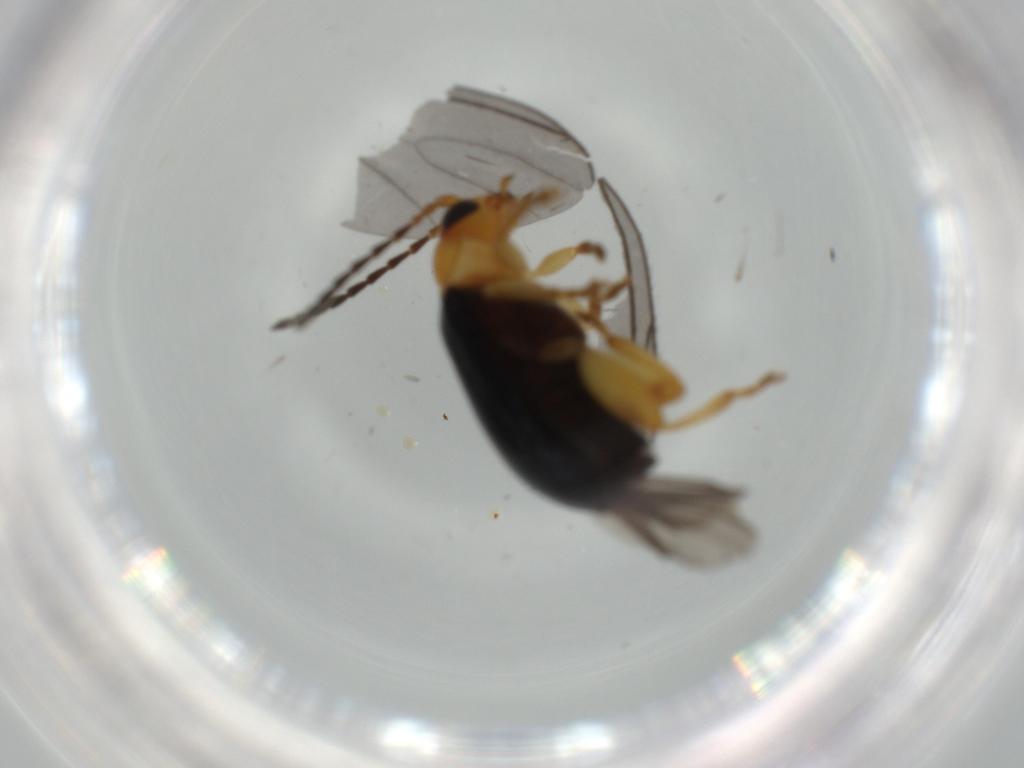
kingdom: Animalia
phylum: Arthropoda
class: Insecta
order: Coleoptera
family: Chrysomelidae
